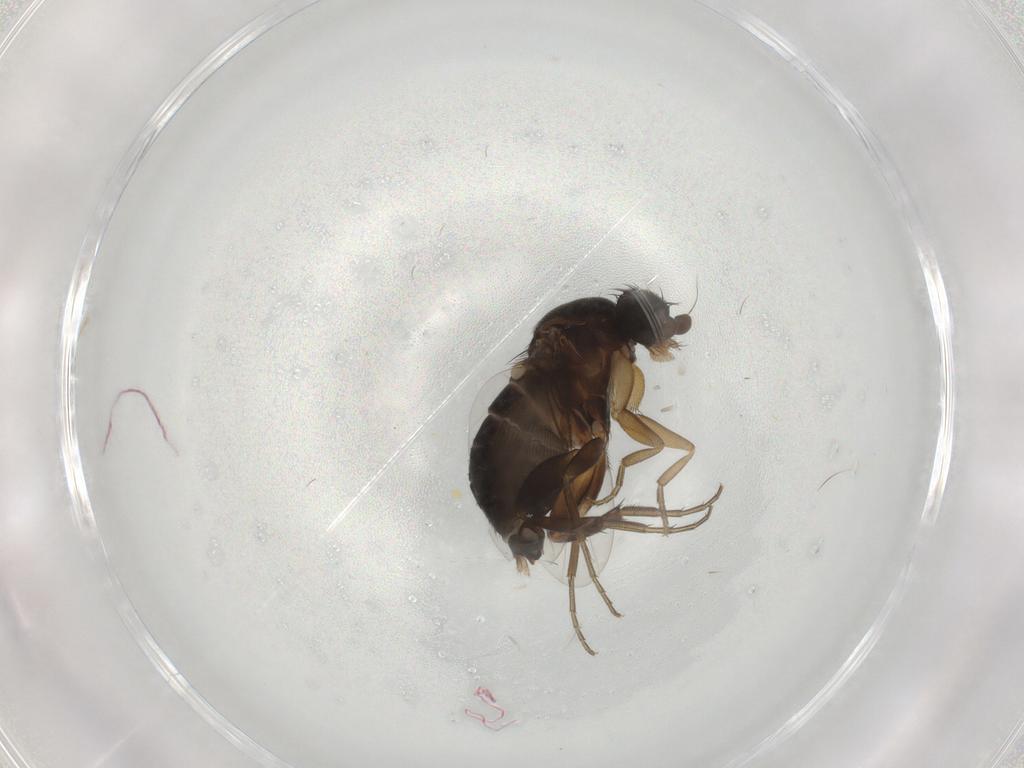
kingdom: Animalia
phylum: Arthropoda
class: Insecta
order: Diptera
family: Phoridae
